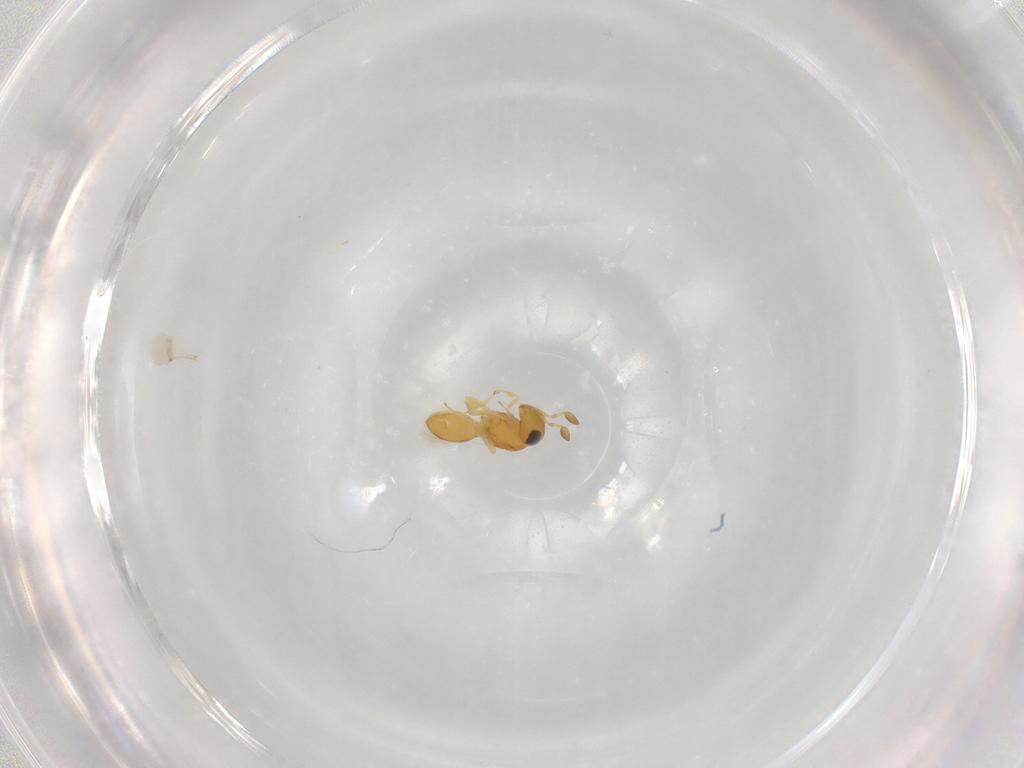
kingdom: Animalia
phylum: Arthropoda
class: Insecta
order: Hymenoptera
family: Scelionidae
